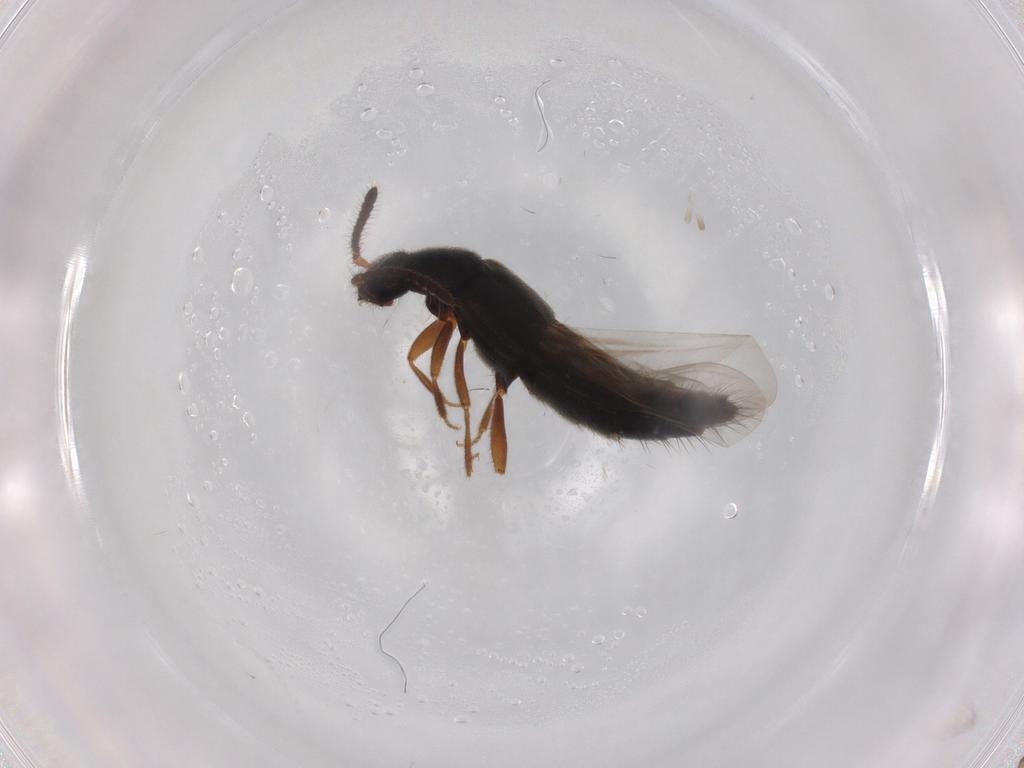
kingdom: Animalia
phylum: Arthropoda
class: Insecta
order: Coleoptera
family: Staphylinidae
